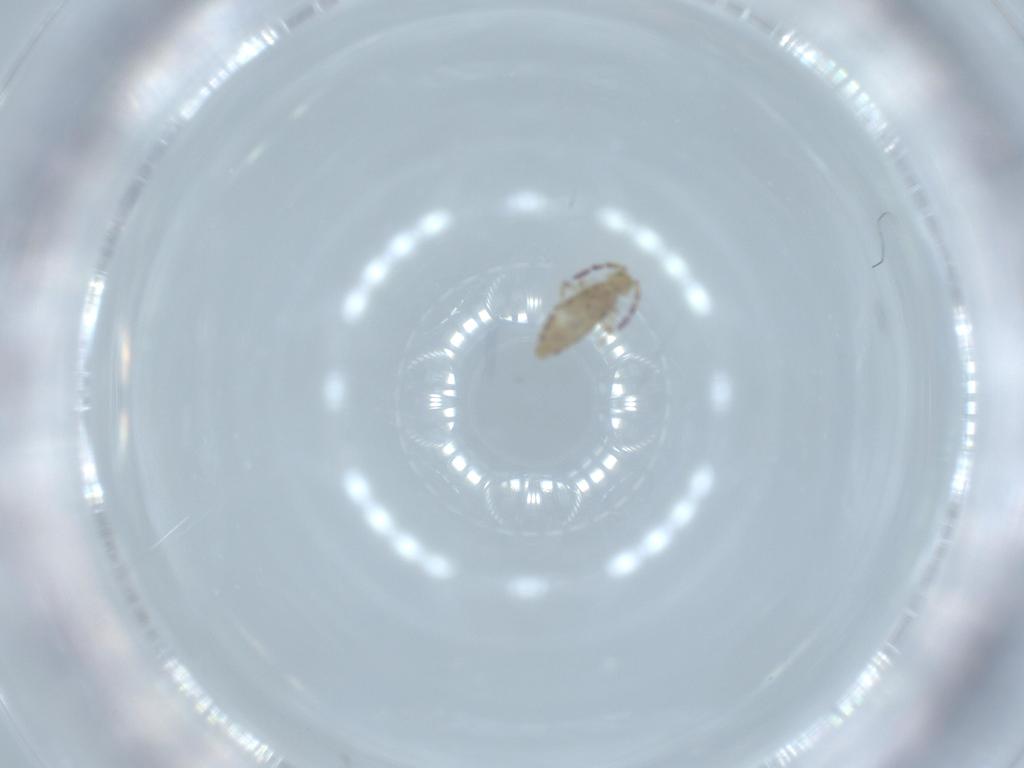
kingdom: Animalia
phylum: Arthropoda
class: Collembola
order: Entomobryomorpha
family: Entomobryidae
